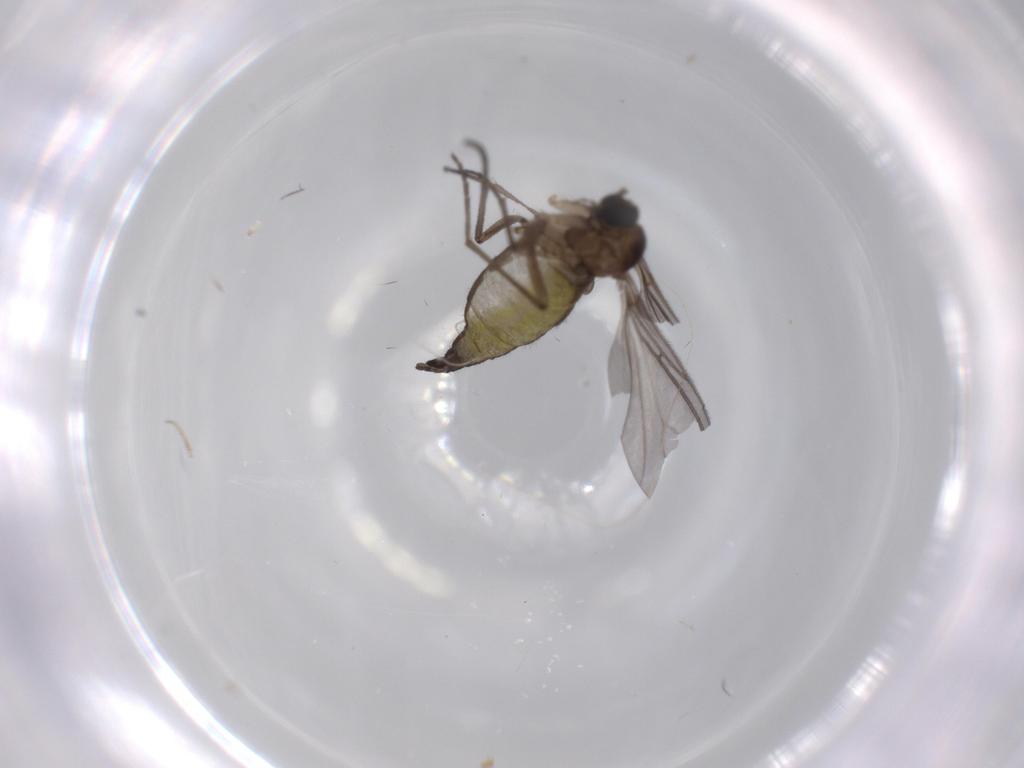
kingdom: Animalia
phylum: Arthropoda
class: Insecta
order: Diptera
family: Sciaridae
